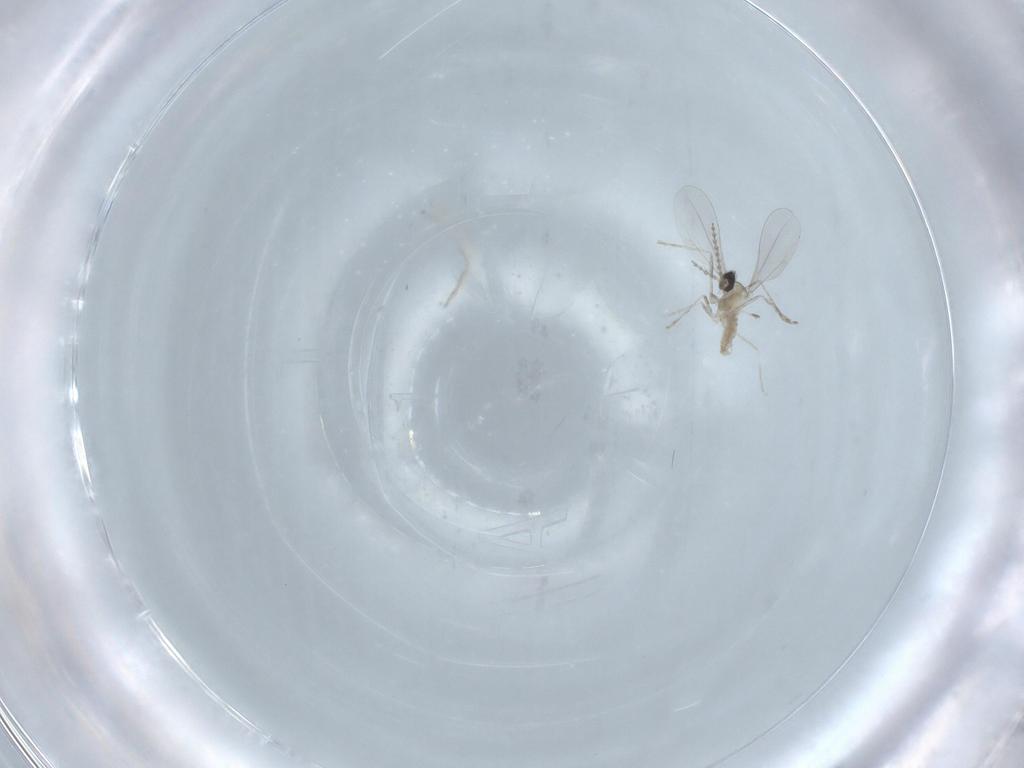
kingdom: Animalia
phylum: Arthropoda
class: Insecta
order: Diptera
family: Cecidomyiidae
